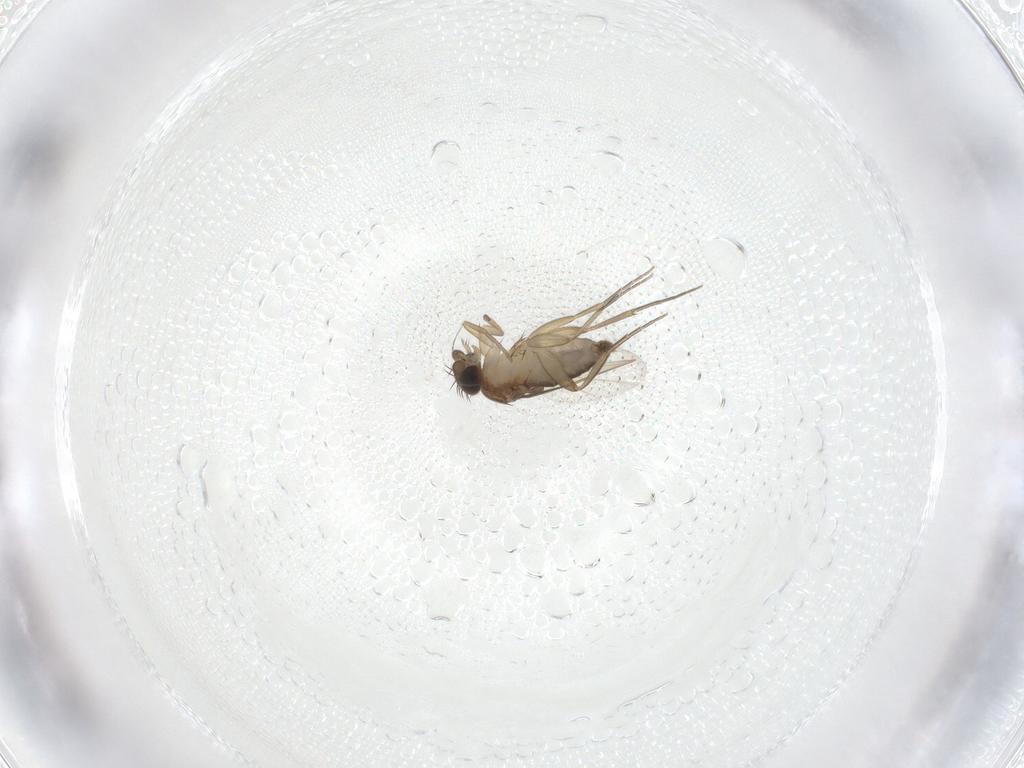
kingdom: Animalia
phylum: Arthropoda
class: Insecta
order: Diptera
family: Phoridae
